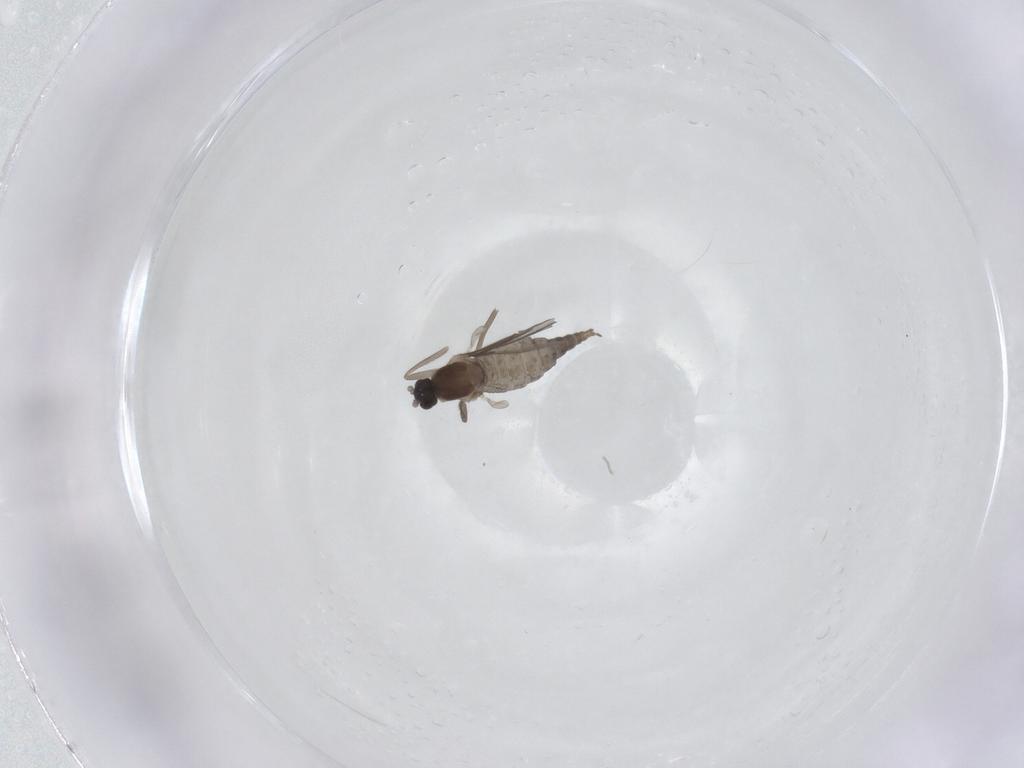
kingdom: Animalia
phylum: Arthropoda
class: Insecta
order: Diptera
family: Cecidomyiidae
